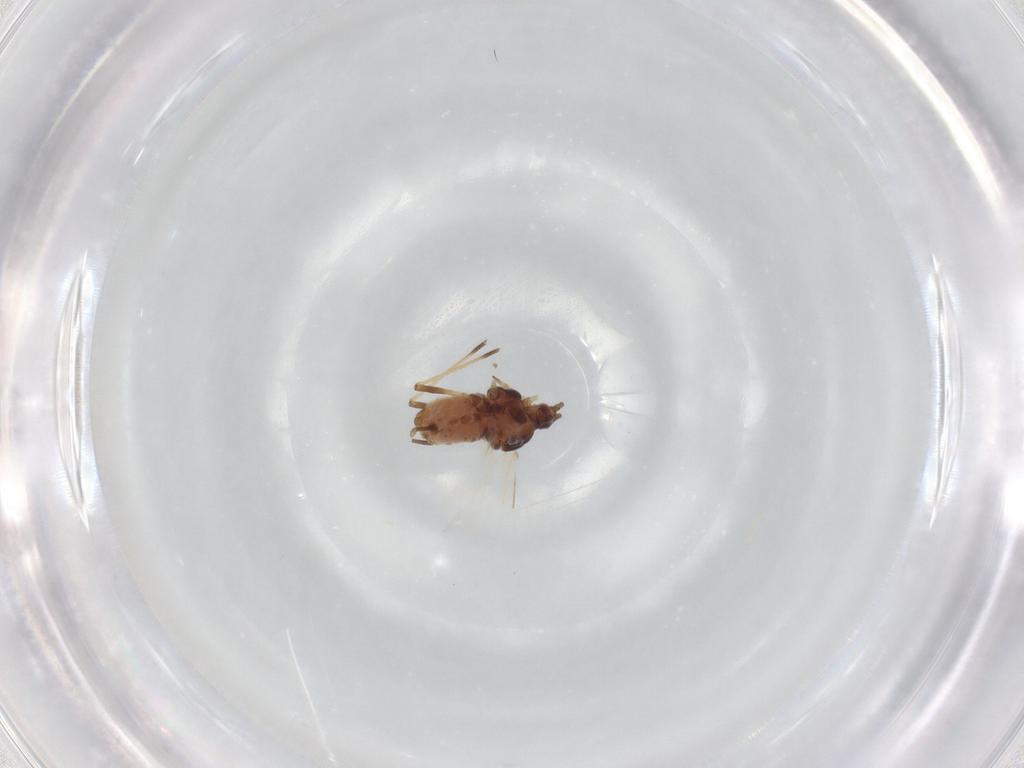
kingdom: Animalia
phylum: Arthropoda
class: Insecta
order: Hemiptera
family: Aphididae
